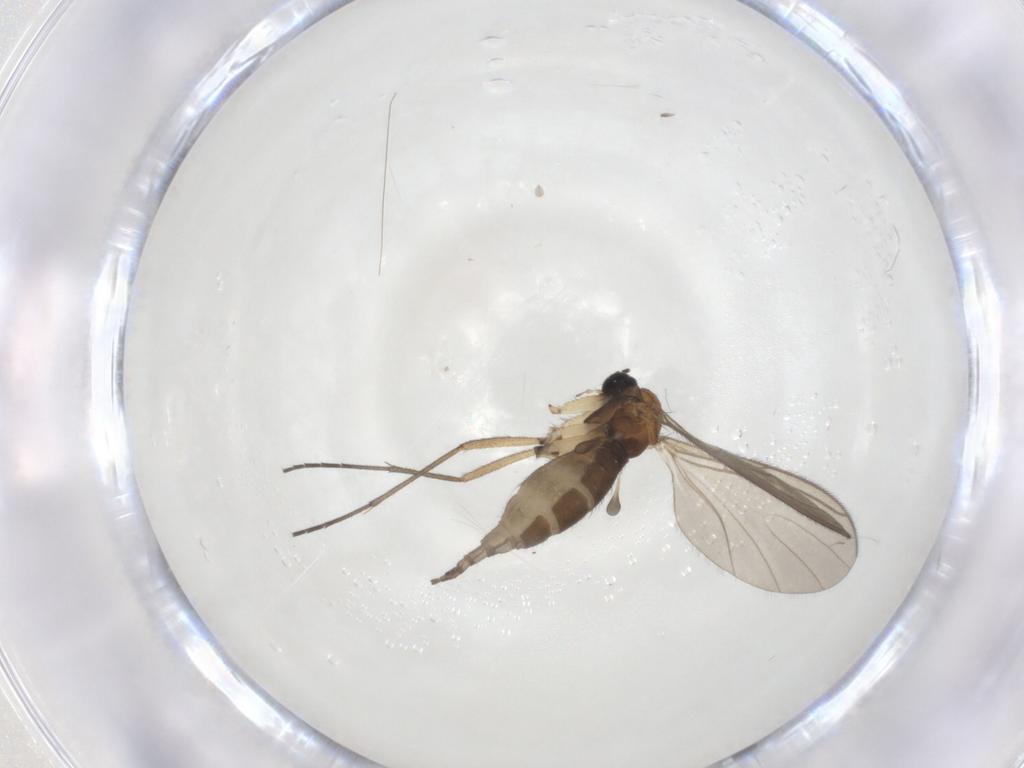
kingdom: Animalia
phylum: Arthropoda
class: Insecta
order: Diptera
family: Sciaridae
